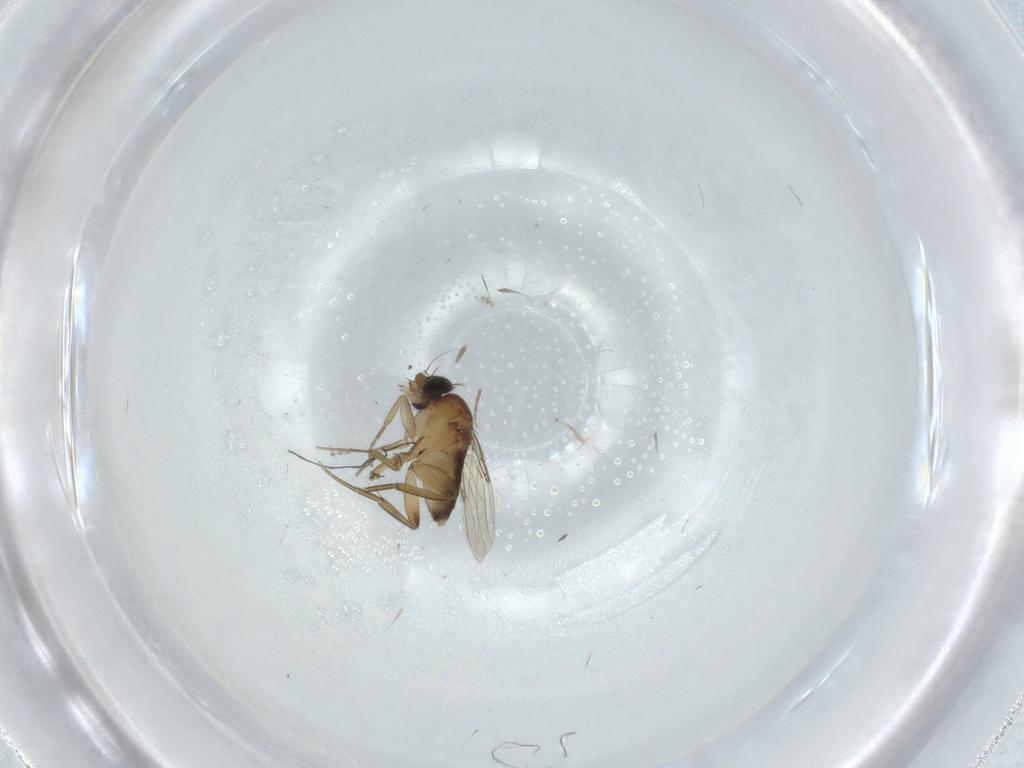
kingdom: Animalia
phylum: Arthropoda
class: Insecta
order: Diptera
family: Phoridae
